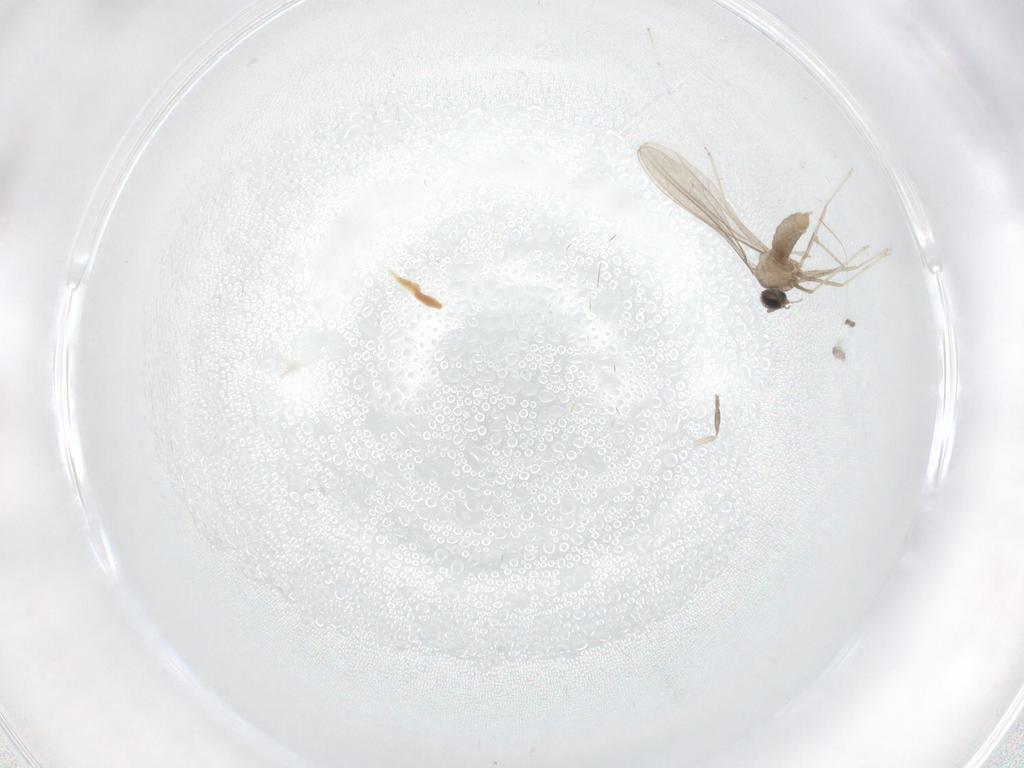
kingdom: Animalia
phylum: Arthropoda
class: Insecta
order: Diptera
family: Cecidomyiidae
